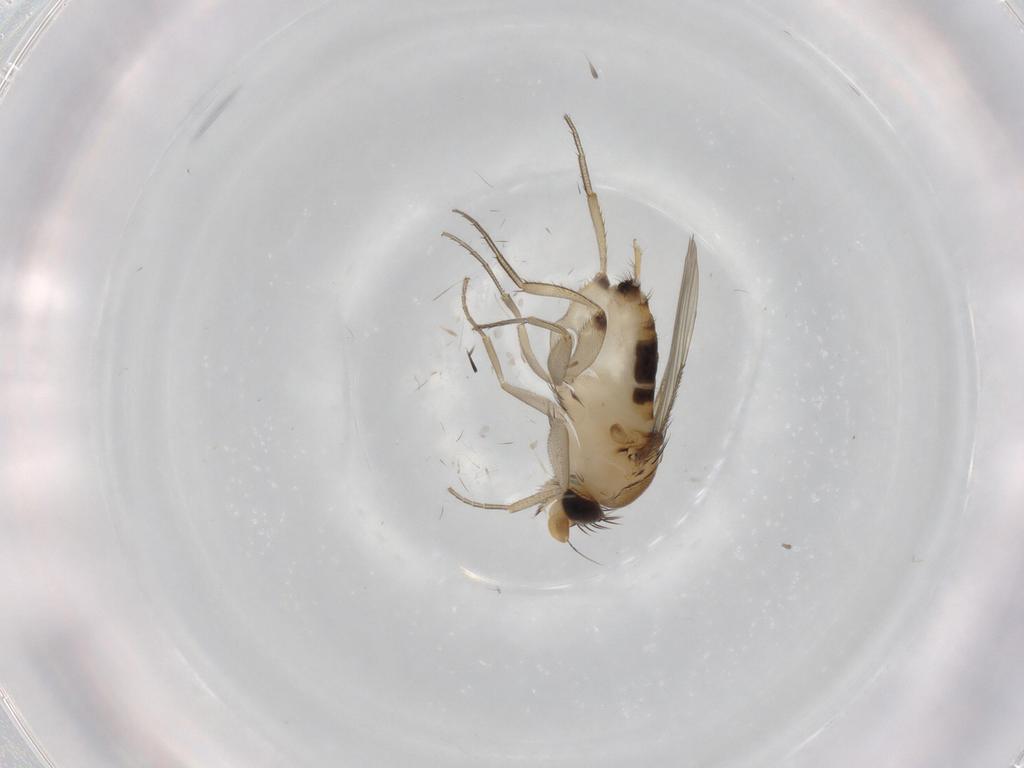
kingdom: Animalia
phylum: Arthropoda
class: Insecta
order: Diptera
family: Phoridae
